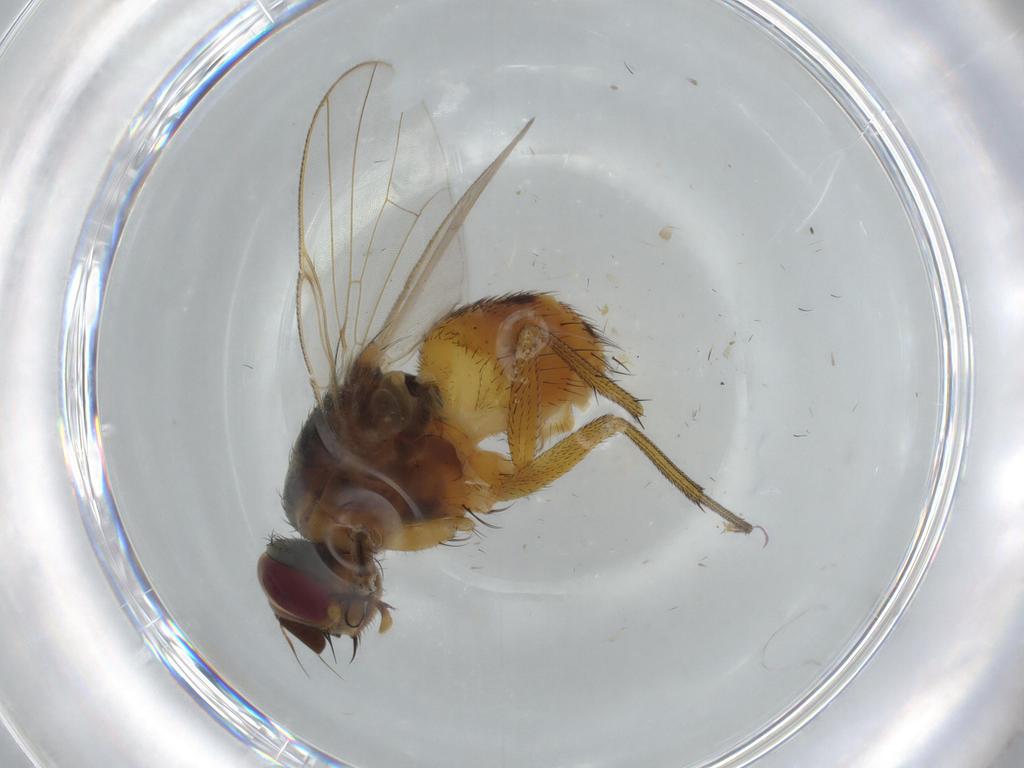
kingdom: Animalia
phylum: Arthropoda
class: Insecta
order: Diptera
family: Muscidae
